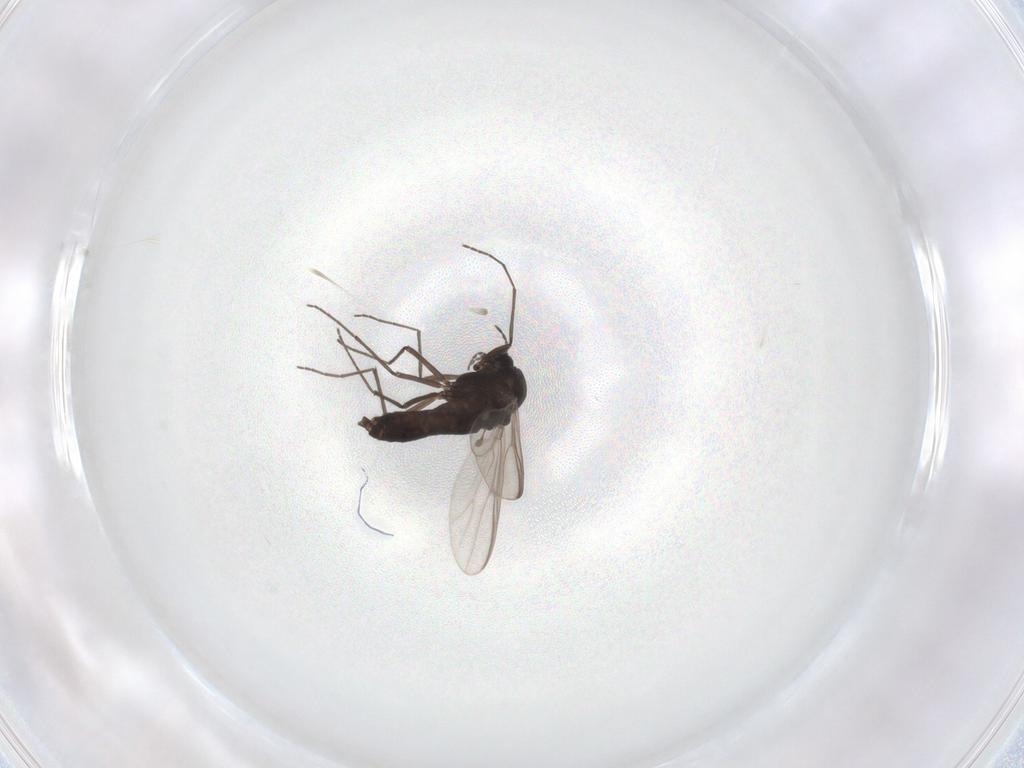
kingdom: Animalia
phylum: Arthropoda
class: Insecta
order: Diptera
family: Chironomidae
